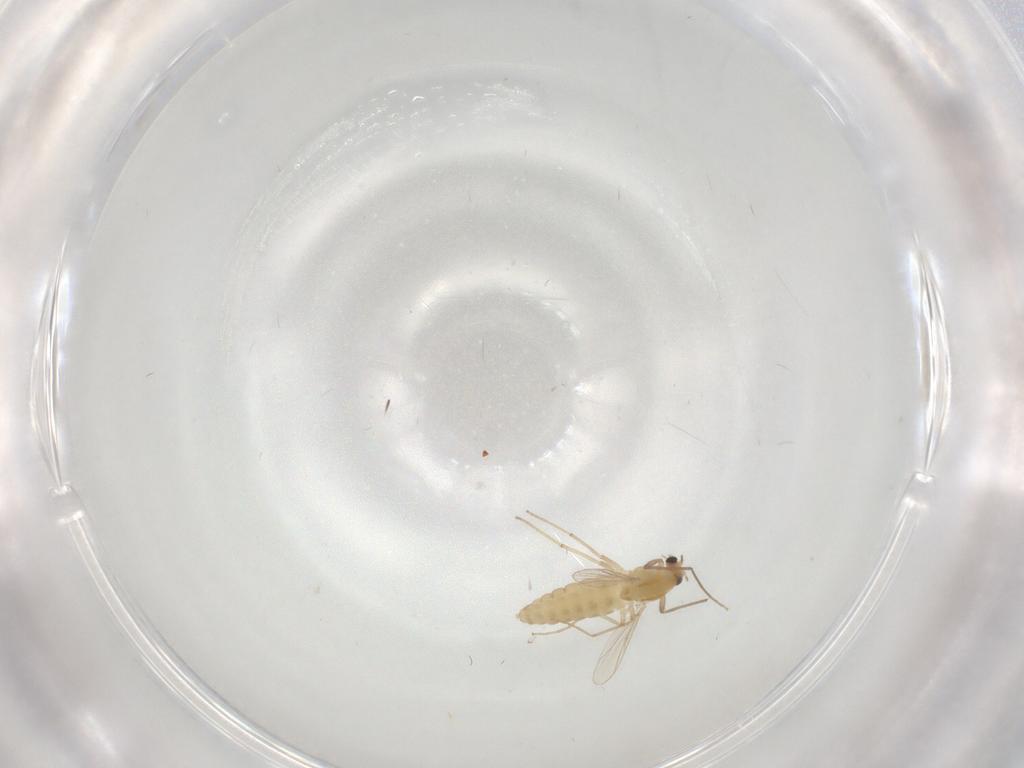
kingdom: Animalia
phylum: Arthropoda
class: Insecta
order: Diptera
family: Chironomidae
